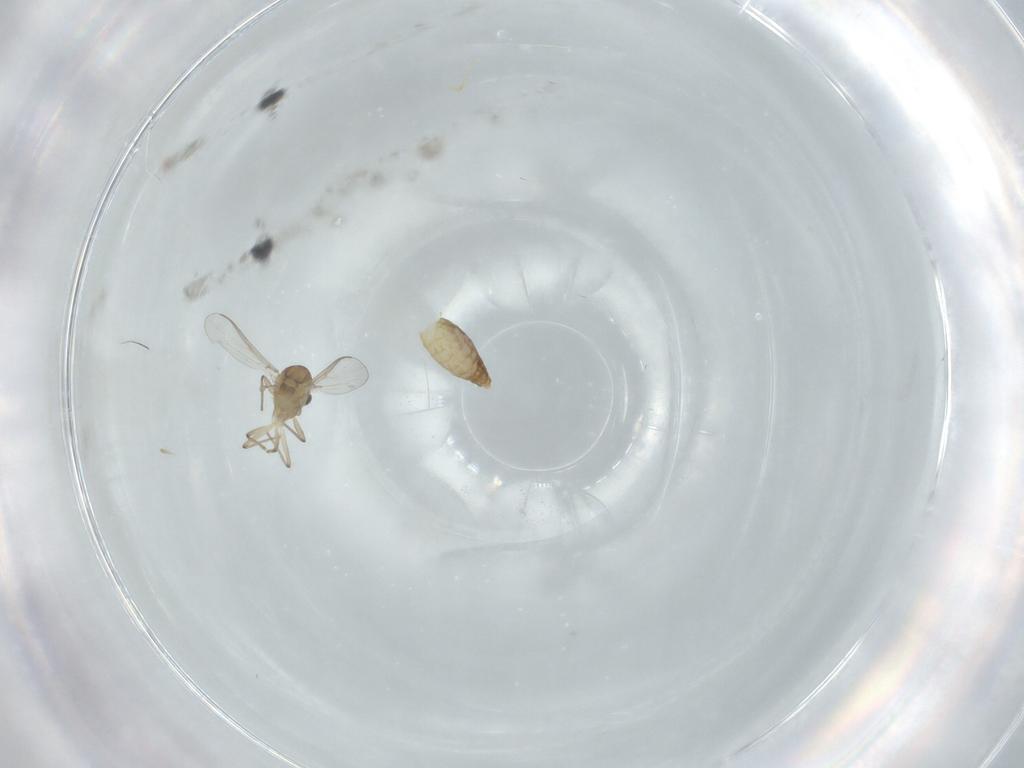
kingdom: Animalia
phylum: Arthropoda
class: Insecta
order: Diptera
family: Chironomidae
